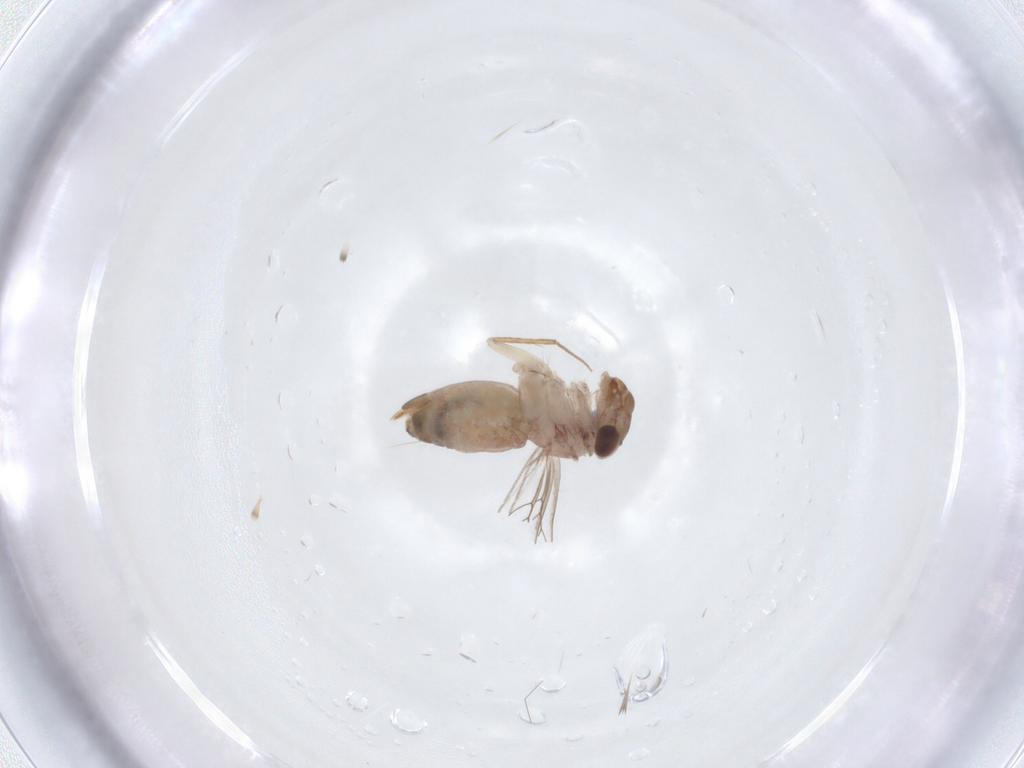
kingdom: Animalia
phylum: Arthropoda
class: Insecta
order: Psocodea
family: Lepidopsocidae
